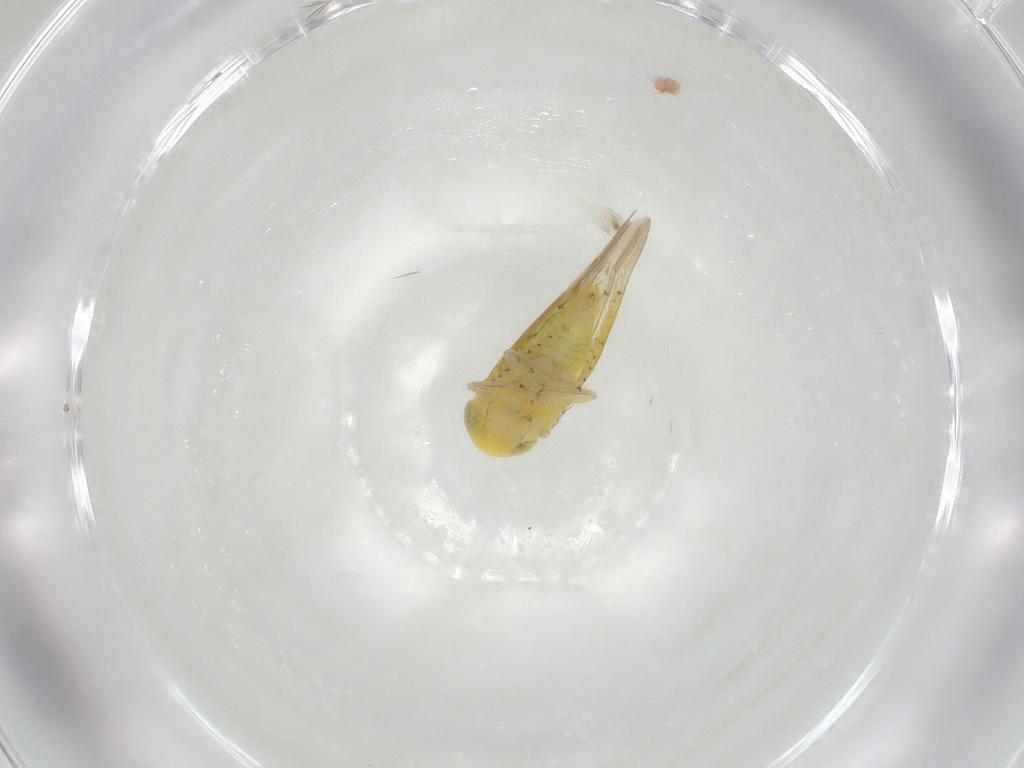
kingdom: Animalia
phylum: Arthropoda
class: Insecta
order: Hemiptera
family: Cicadellidae
